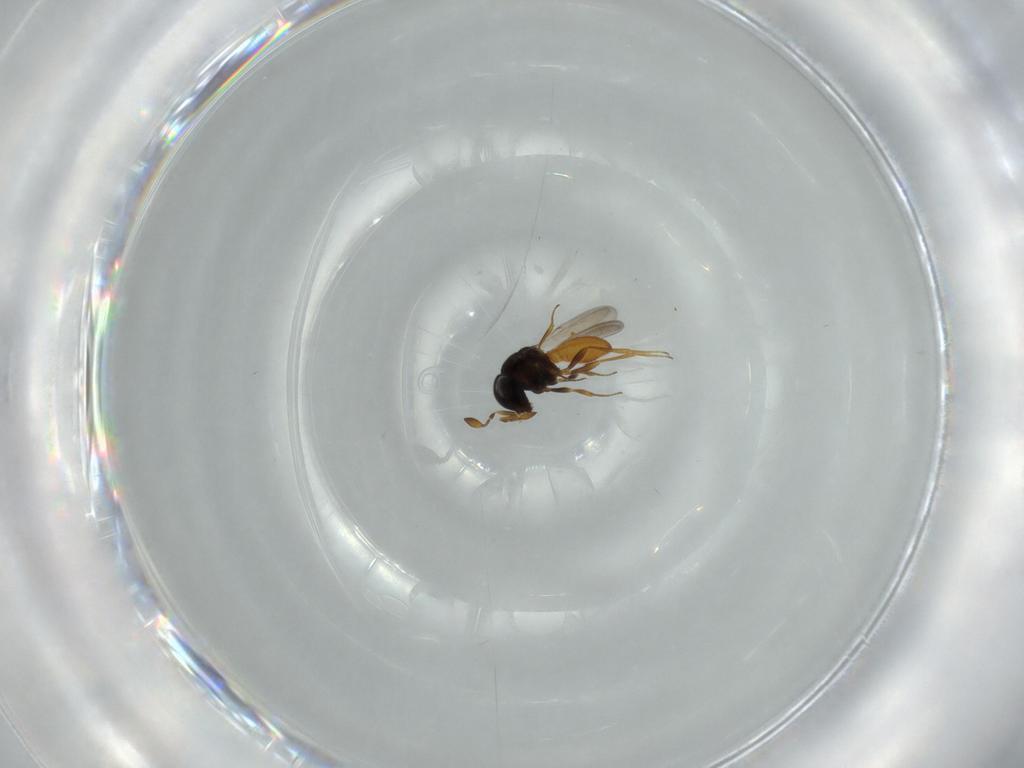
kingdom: Animalia
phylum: Arthropoda
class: Insecta
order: Hymenoptera
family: Scelionidae
